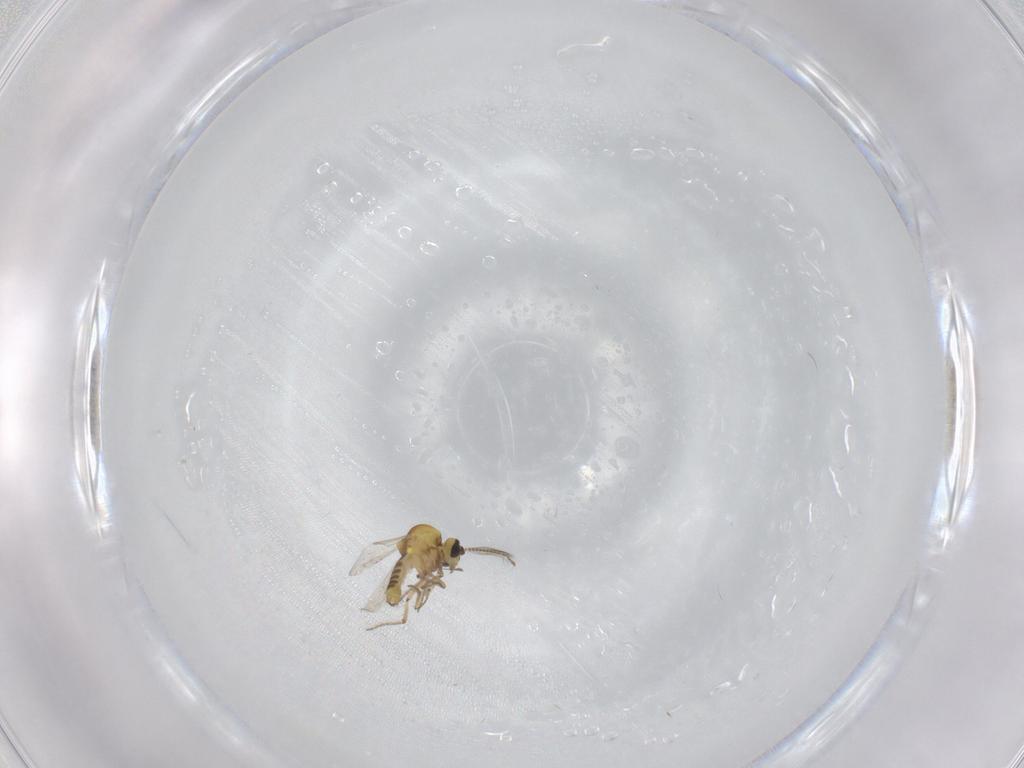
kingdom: Animalia
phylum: Arthropoda
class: Insecta
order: Diptera
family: Ceratopogonidae
